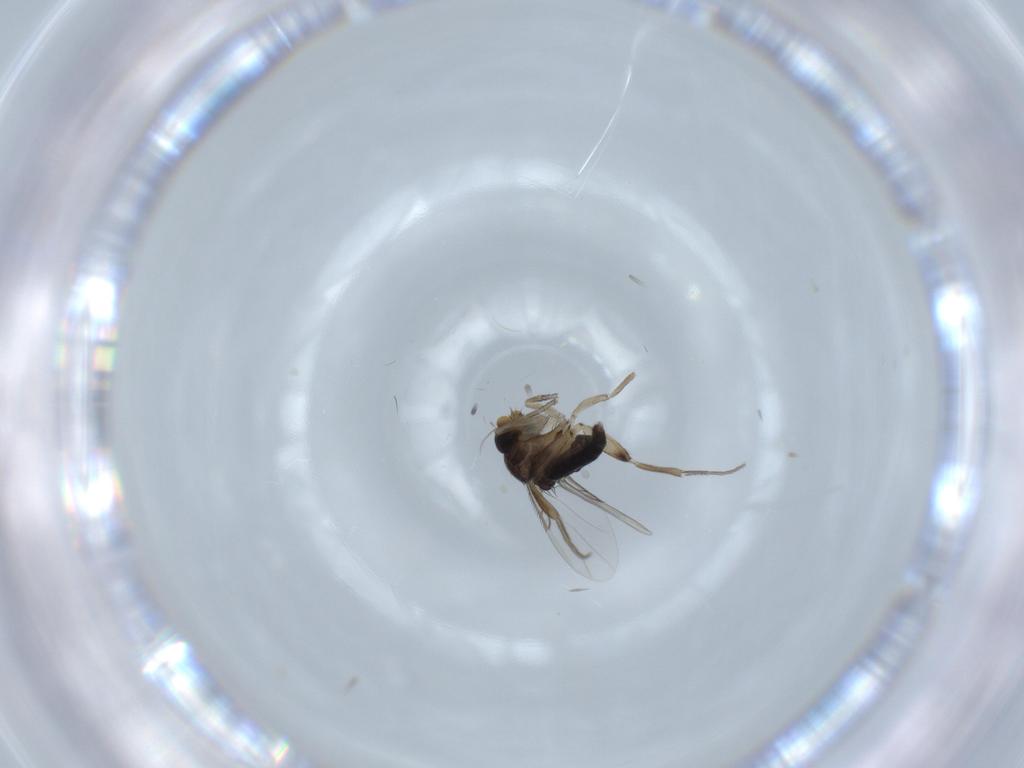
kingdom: Animalia
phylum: Arthropoda
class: Insecta
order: Diptera
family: Phoridae
